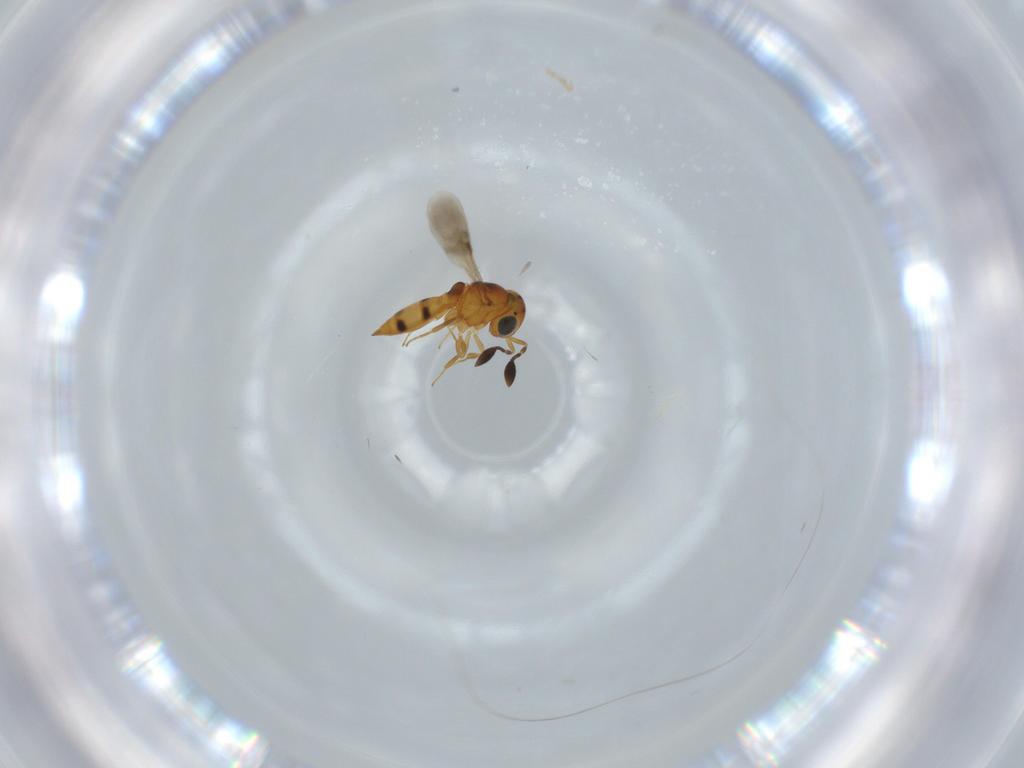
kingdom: Animalia
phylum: Arthropoda
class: Insecta
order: Hymenoptera
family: Scelionidae
